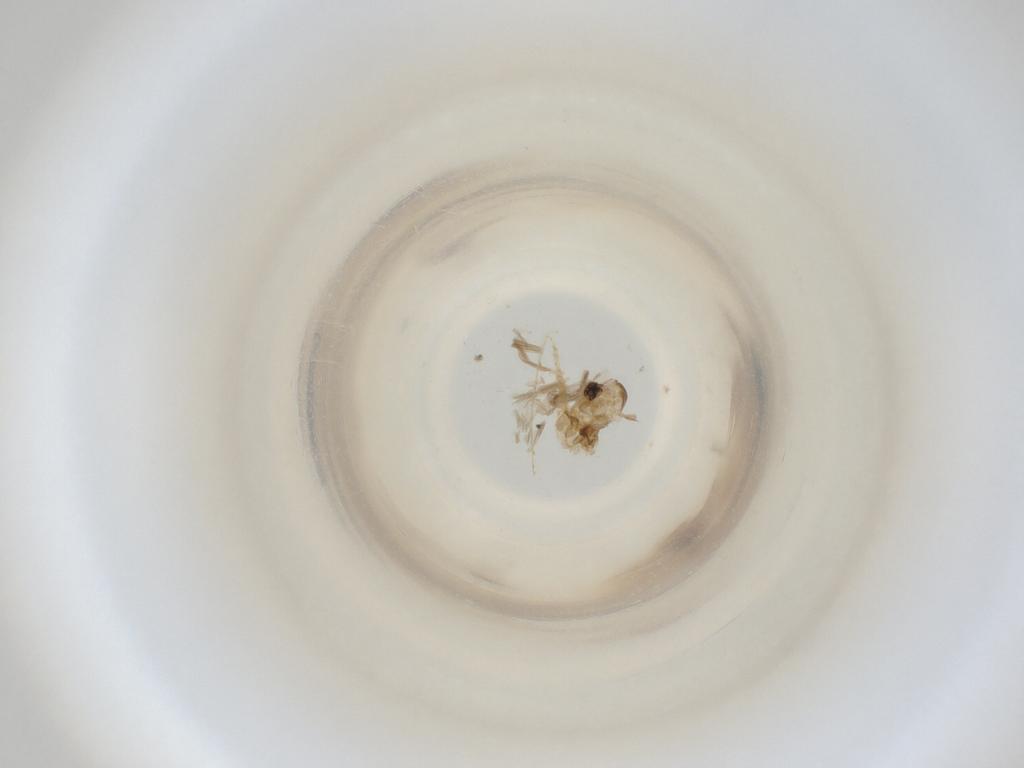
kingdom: Animalia
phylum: Arthropoda
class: Insecta
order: Diptera
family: Cecidomyiidae
